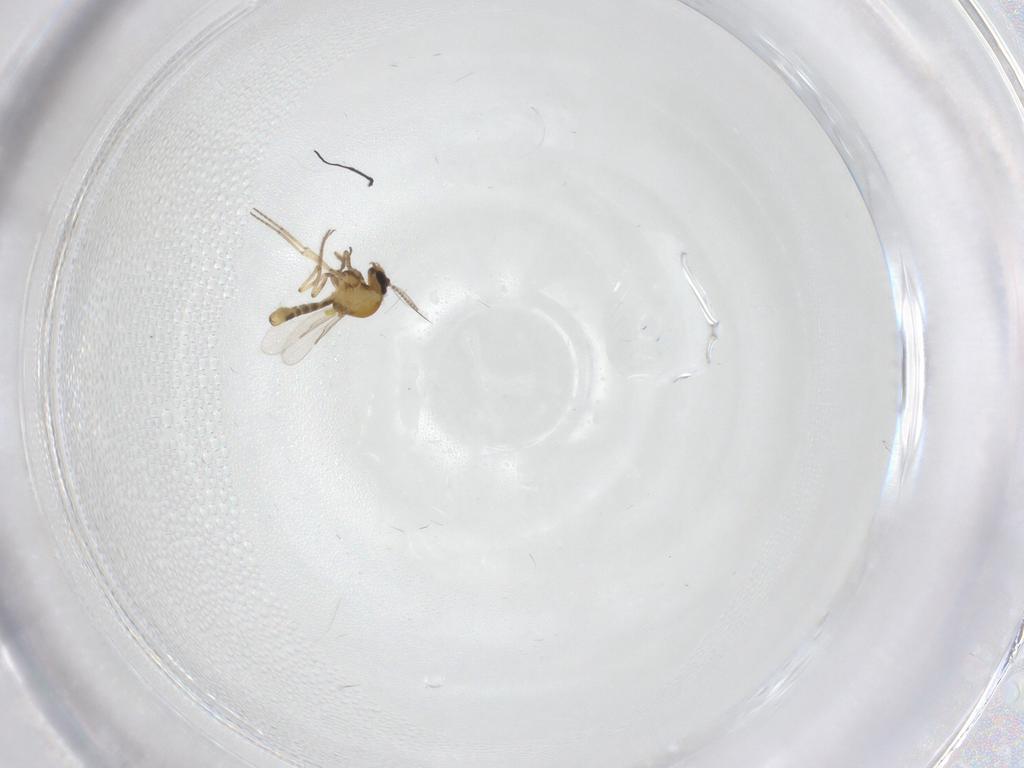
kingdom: Animalia
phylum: Arthropoda
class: Insecta
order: Diptera
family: Ceratopogonidae
